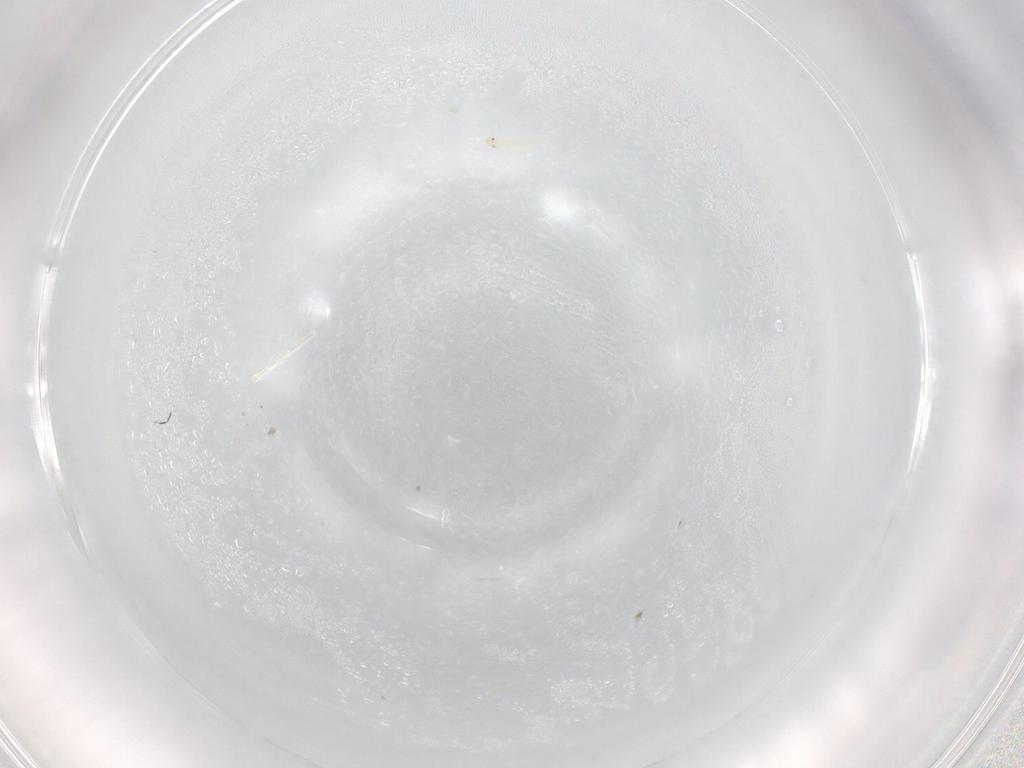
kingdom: Animalia
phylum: Arthropoda
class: Insecta
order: Diptera
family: Stratiomyidae
